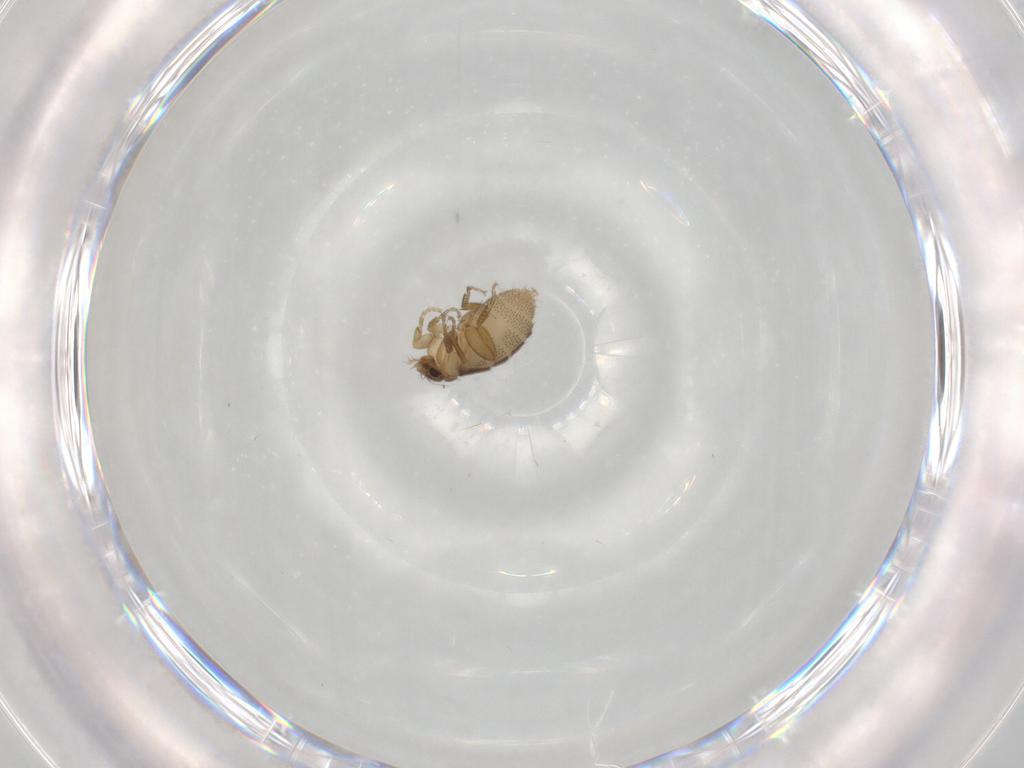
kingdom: Animalia
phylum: Arthropoda
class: Insecta
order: Diptera
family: Phoridae
